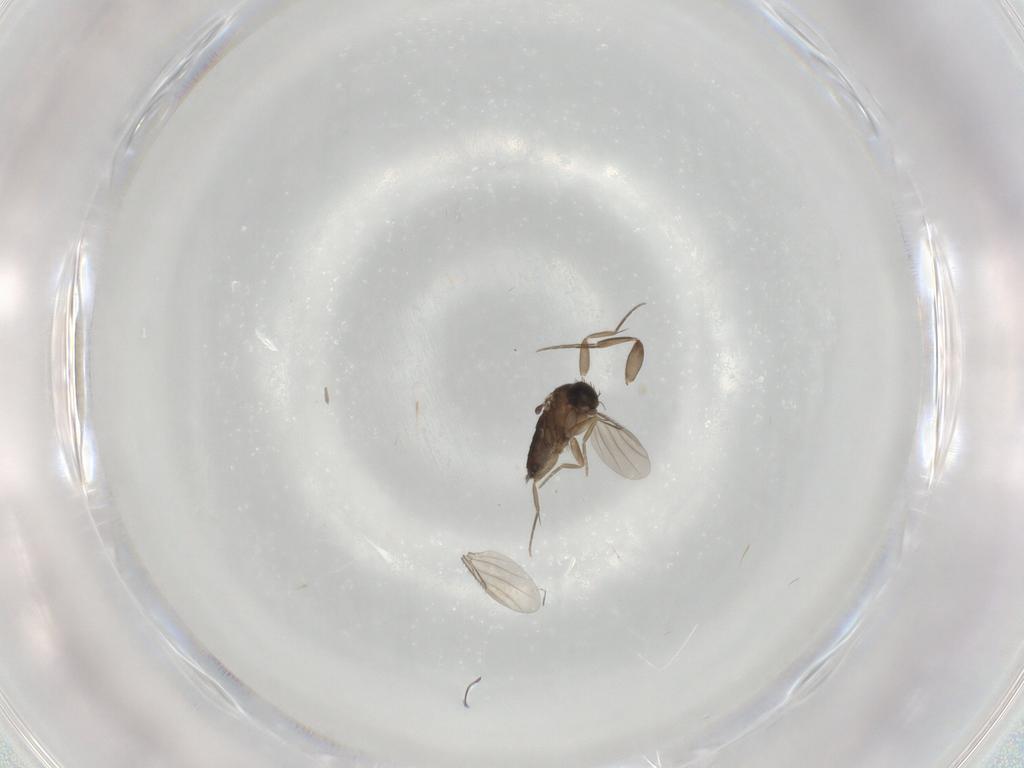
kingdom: Animalia
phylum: Arthropoda
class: Insecta
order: Diptera
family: Phoridae
